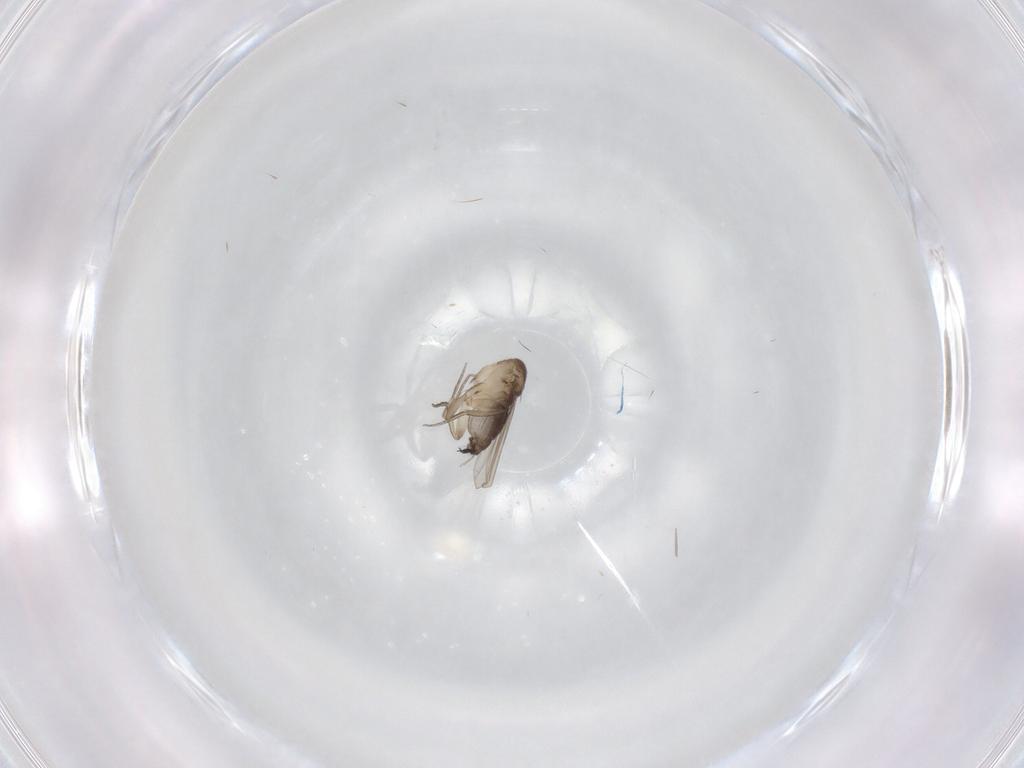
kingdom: Animalia
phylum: Arthropoda
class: Insecta
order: Diptera
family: Phoridae
